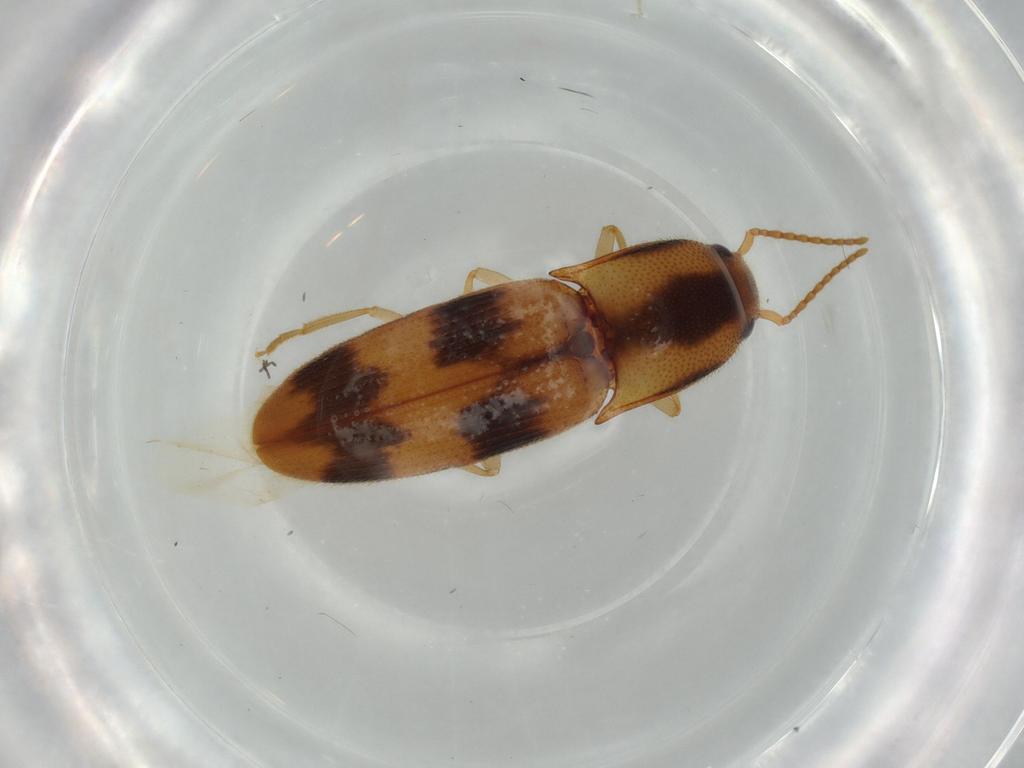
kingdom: Animalia
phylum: Arthropoda
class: Insecta
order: Coleoptera
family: Elateridae
